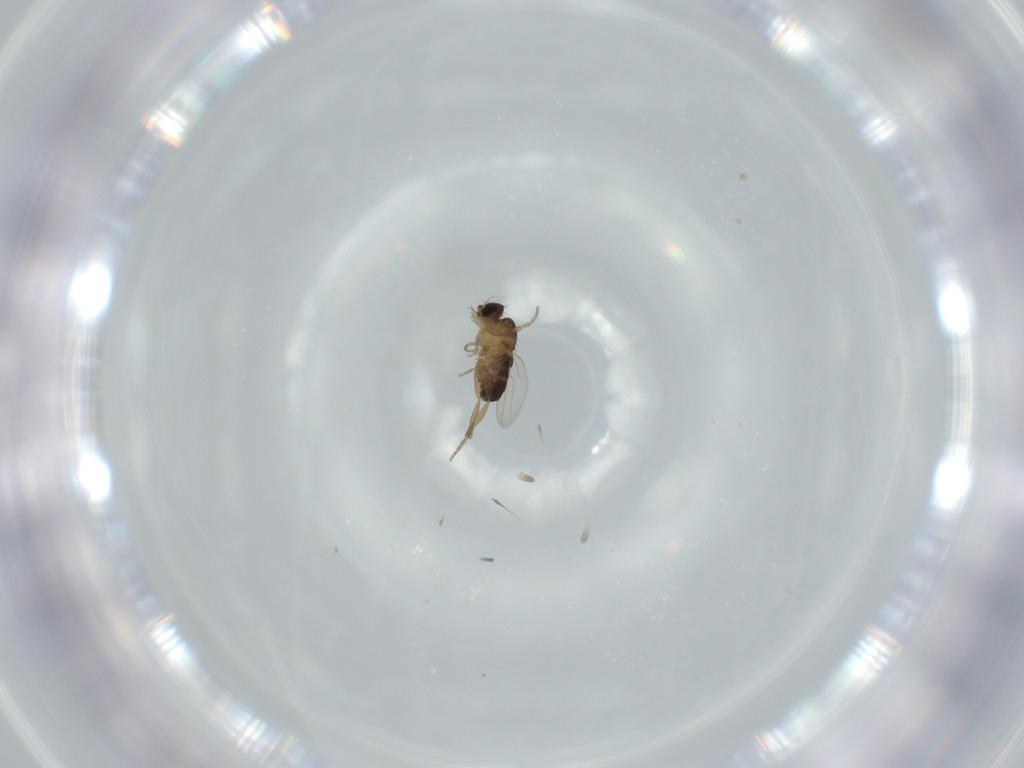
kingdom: Animalia
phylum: Arthropoda
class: Insecta
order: Diptera
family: Phoridae
